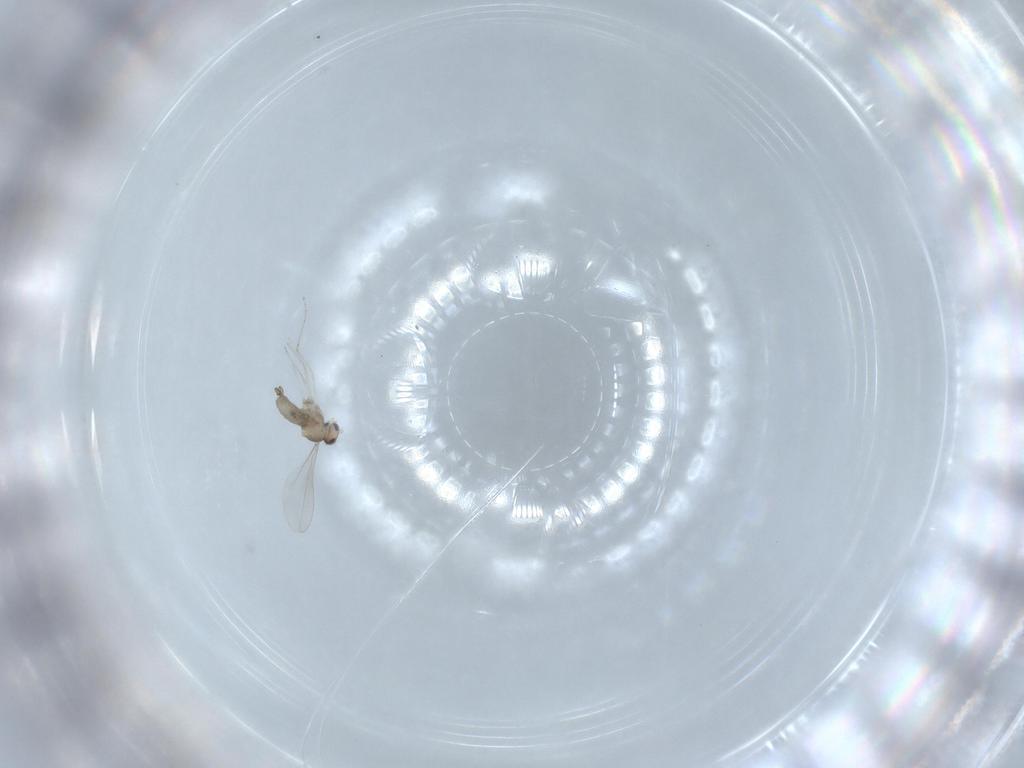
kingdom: Animalia
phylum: Arthropoda
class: Insecta
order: Diptera
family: Cecidomyiidae
